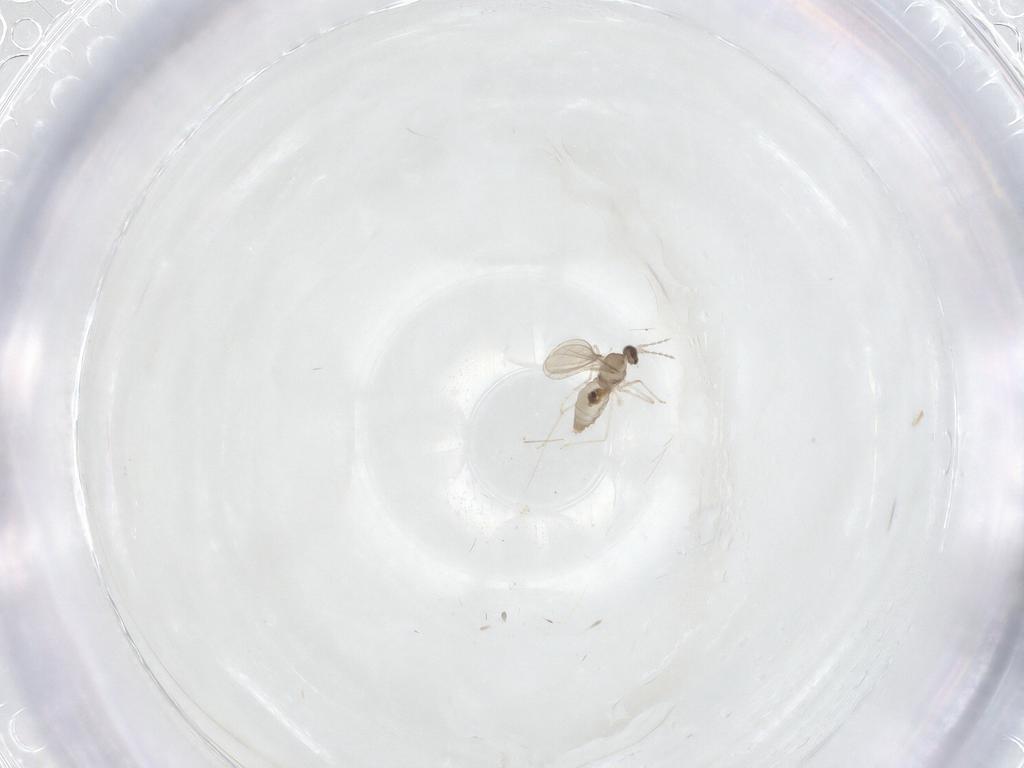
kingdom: Animalia
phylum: Arthropoda
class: Insecta
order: Diptera
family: Cecidomyiidae
